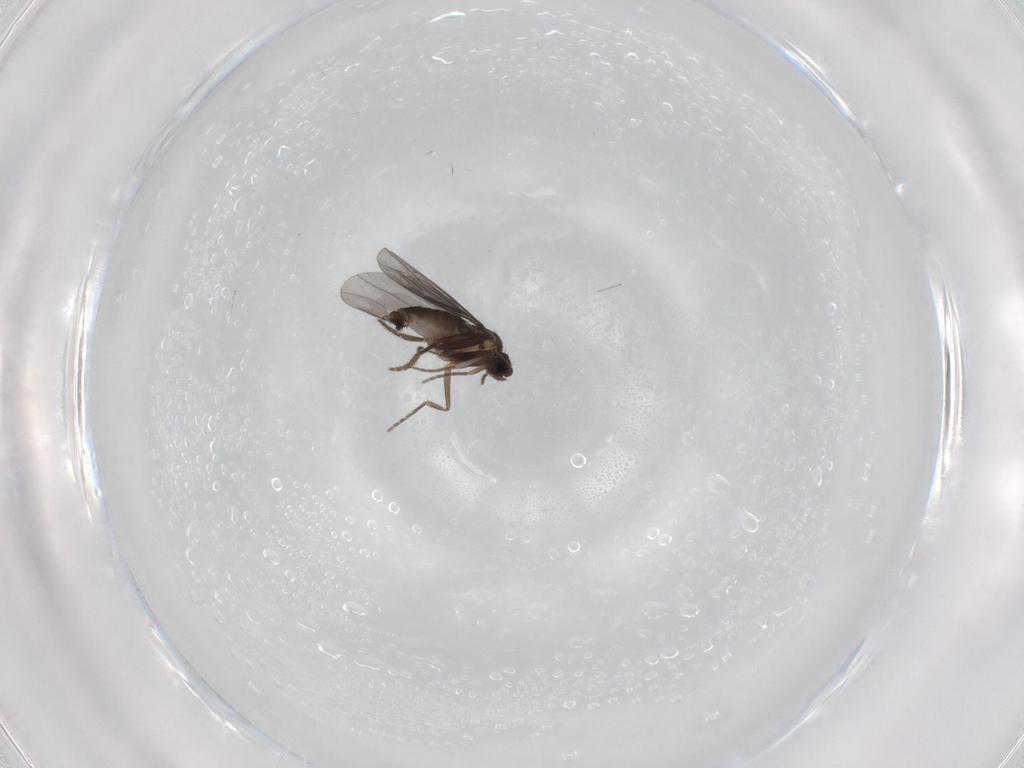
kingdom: Animalia
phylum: Arthropoda
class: Insecta
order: Diptera
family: Phoridae
